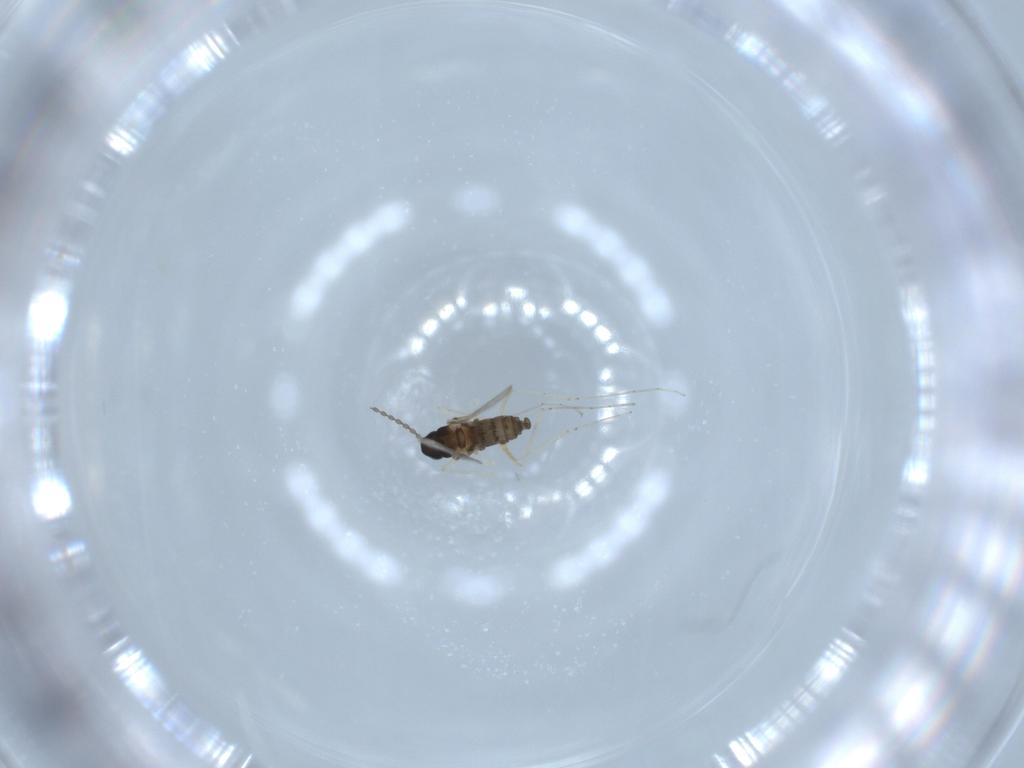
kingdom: Animalia
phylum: Arthropoda
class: Insecta
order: Diptera
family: Cecidomyiidae
